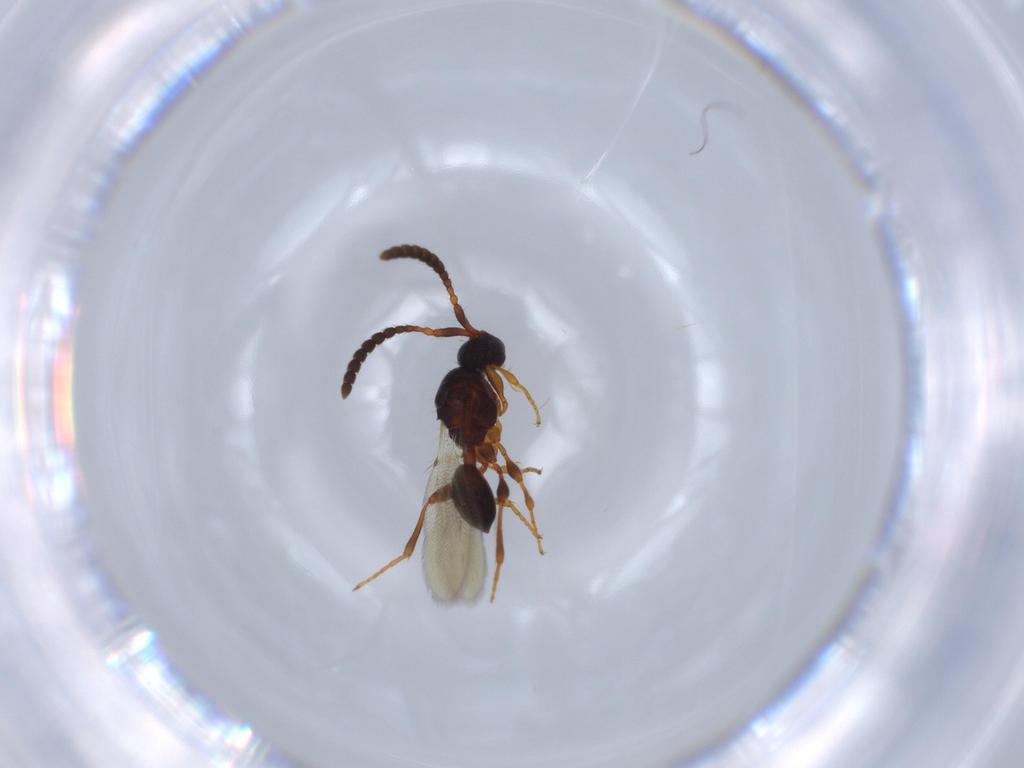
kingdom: Animalia
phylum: Arthropoda
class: Insecta
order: Hymenoptera
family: Diapriidae
